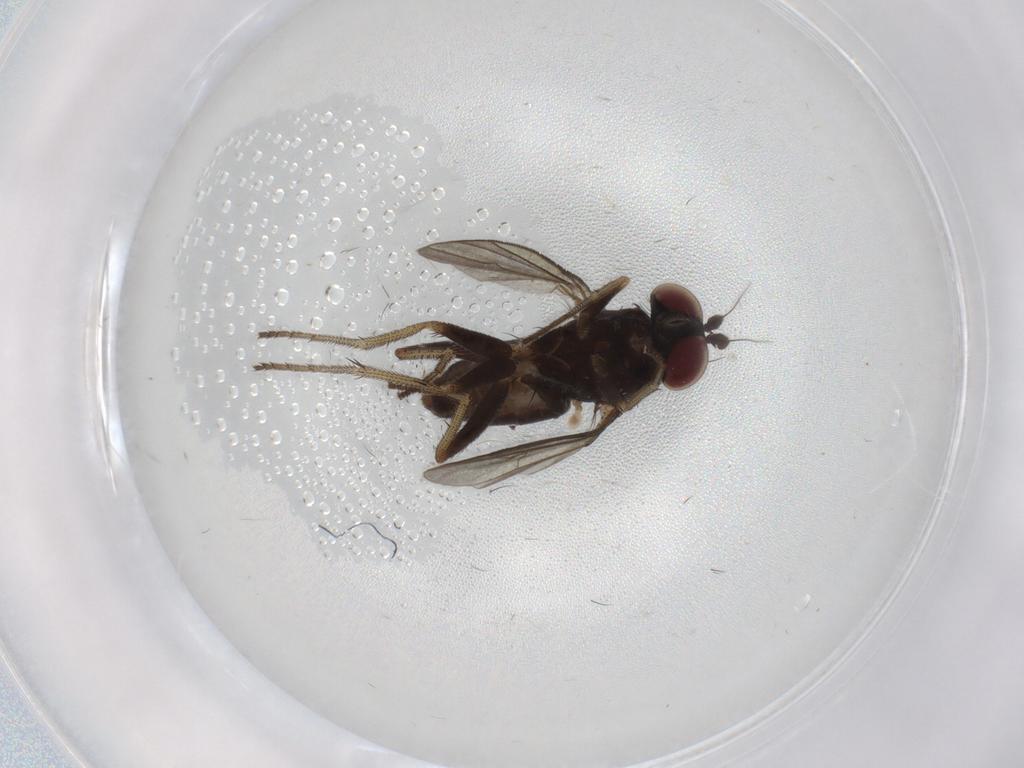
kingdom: Animalia
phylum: Arthropoda
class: Insecta
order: Diptera
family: Dolichopodidae
